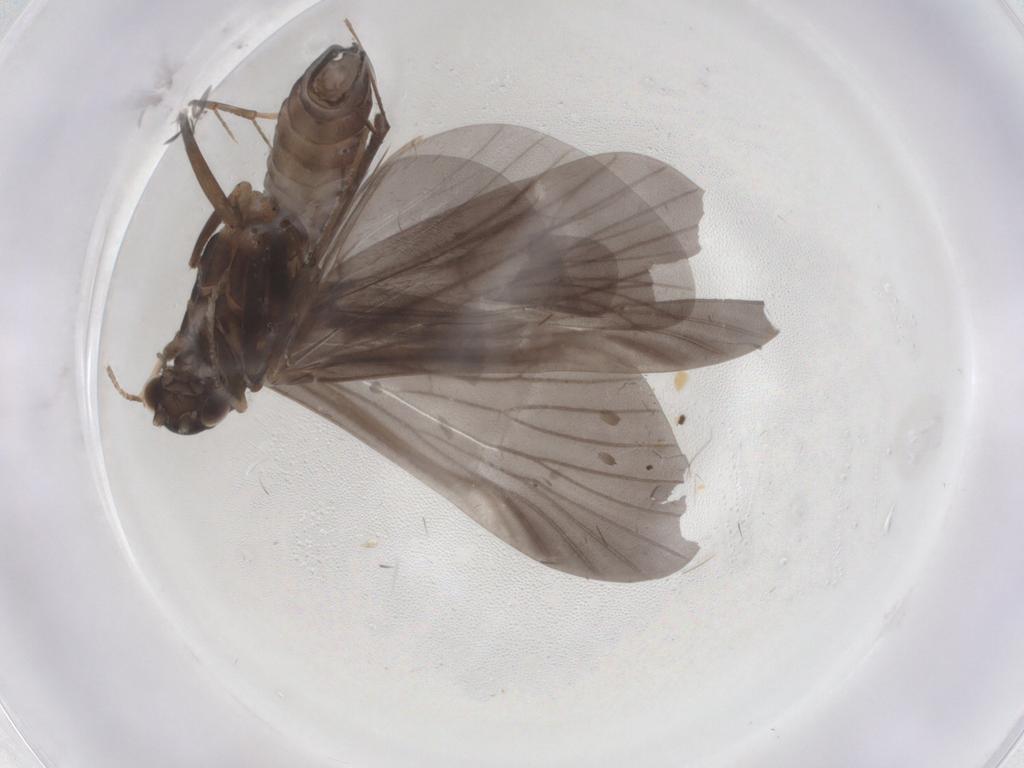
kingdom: Animalia
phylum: Arthropoda
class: Insecta
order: Trichoptera
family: Hydropsychidae
